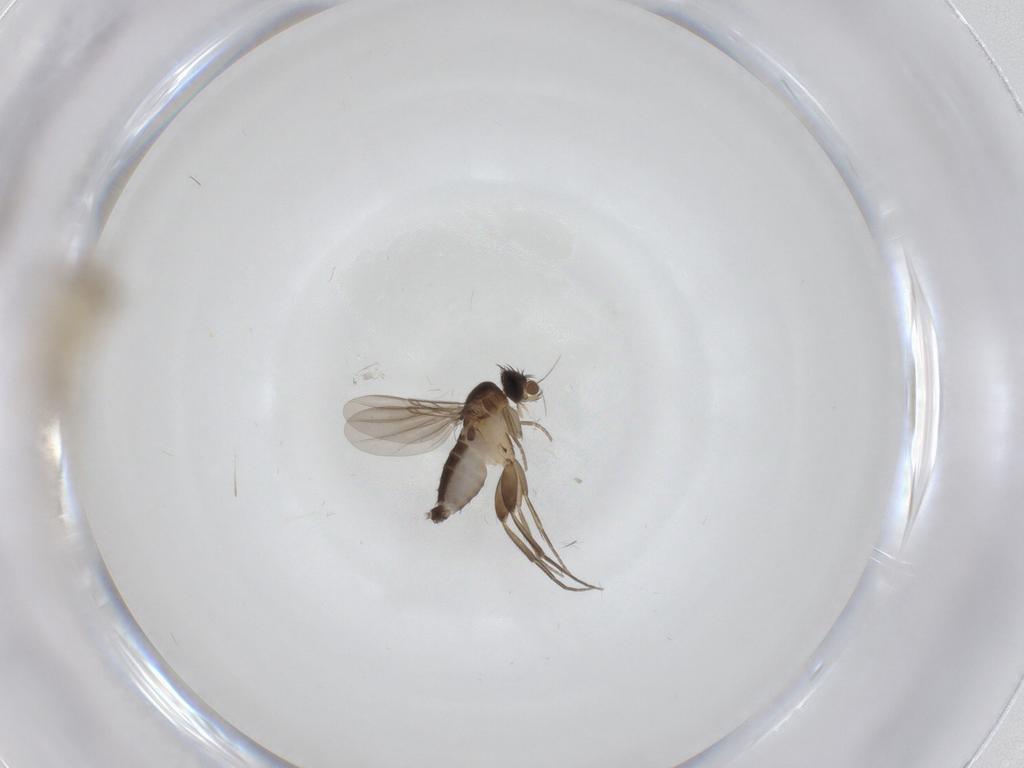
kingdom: Animalia
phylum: Arthropoda
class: Insecta
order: Diptera
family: Phoridae
